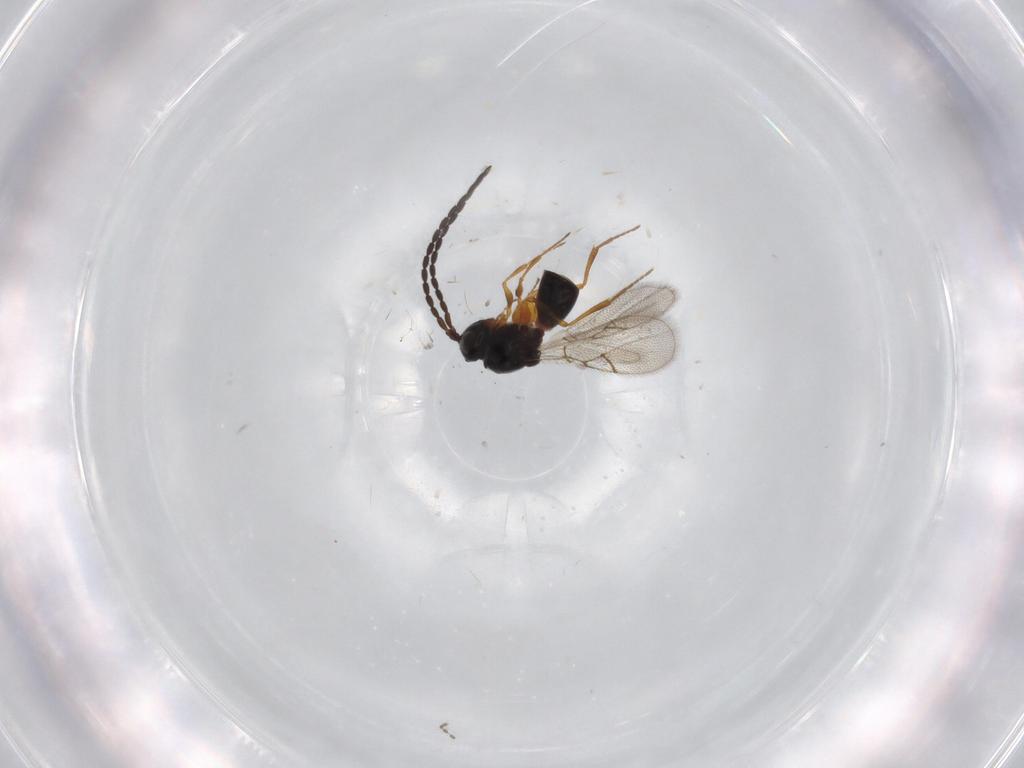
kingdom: Animalia
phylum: Arthropoda
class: Insecta
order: Hymenoptera
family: Figitidae
